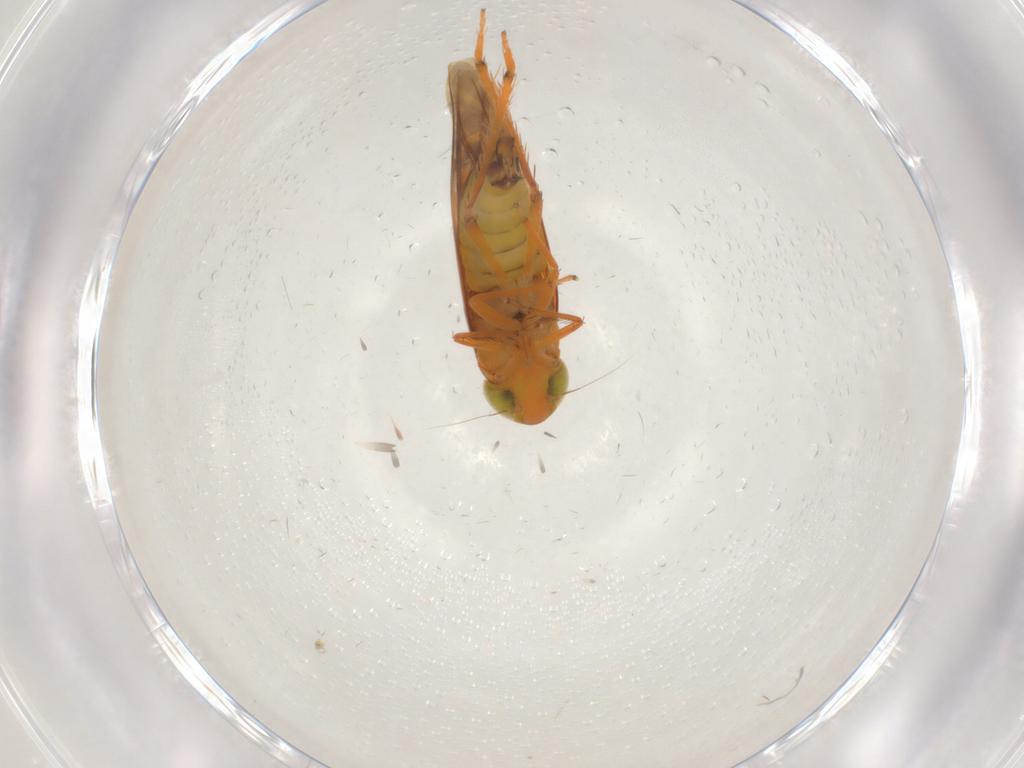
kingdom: Animalia
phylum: Arthropoda
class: Insecta
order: Hemiptera
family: Cicadellidae
